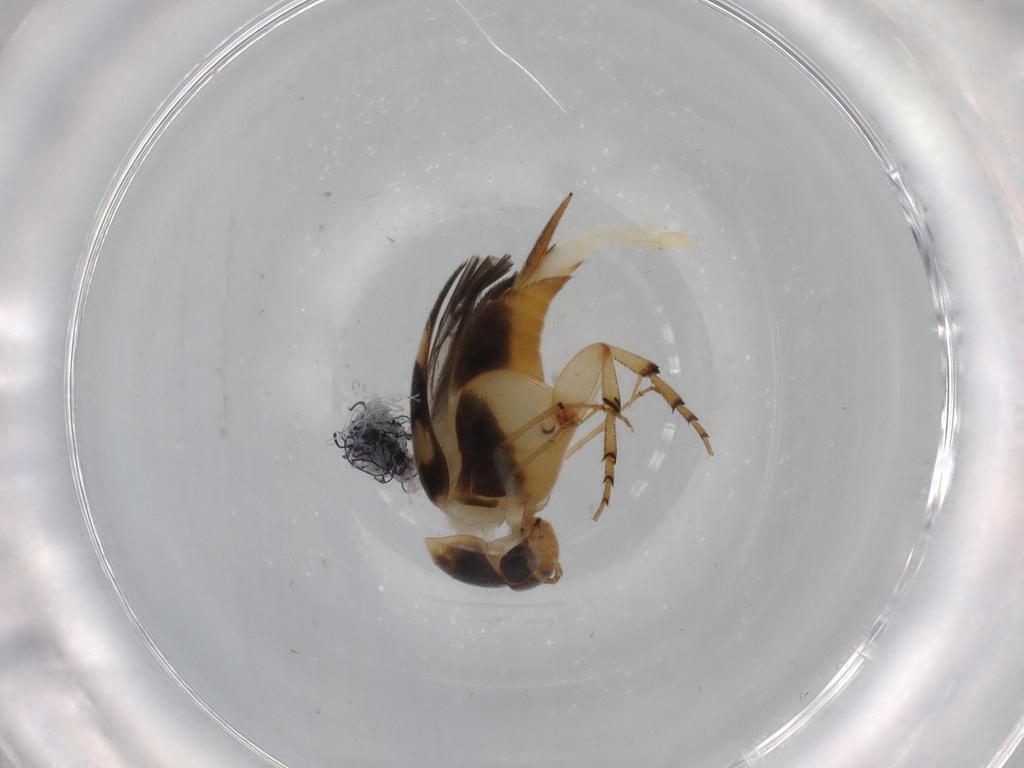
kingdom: Animalia
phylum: Arthropoda
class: Insecta
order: Coleoptera
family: Mordellidae
